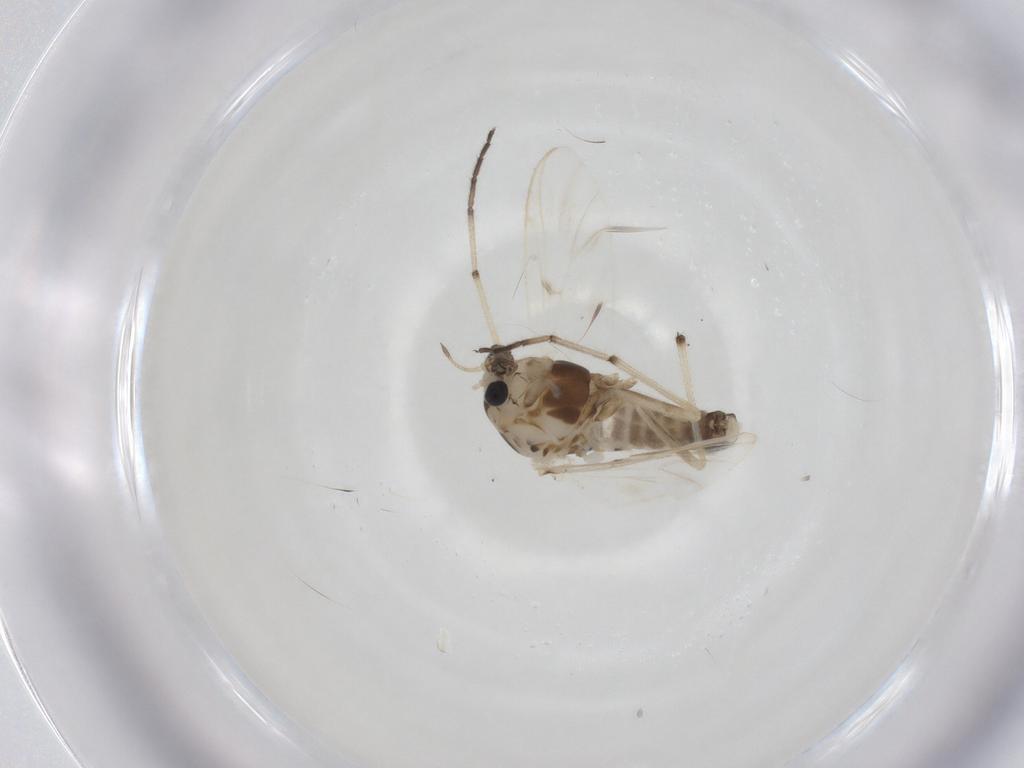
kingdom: Animalia
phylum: Arthropoda
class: Insecta
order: Diptera
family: Chironomidae
